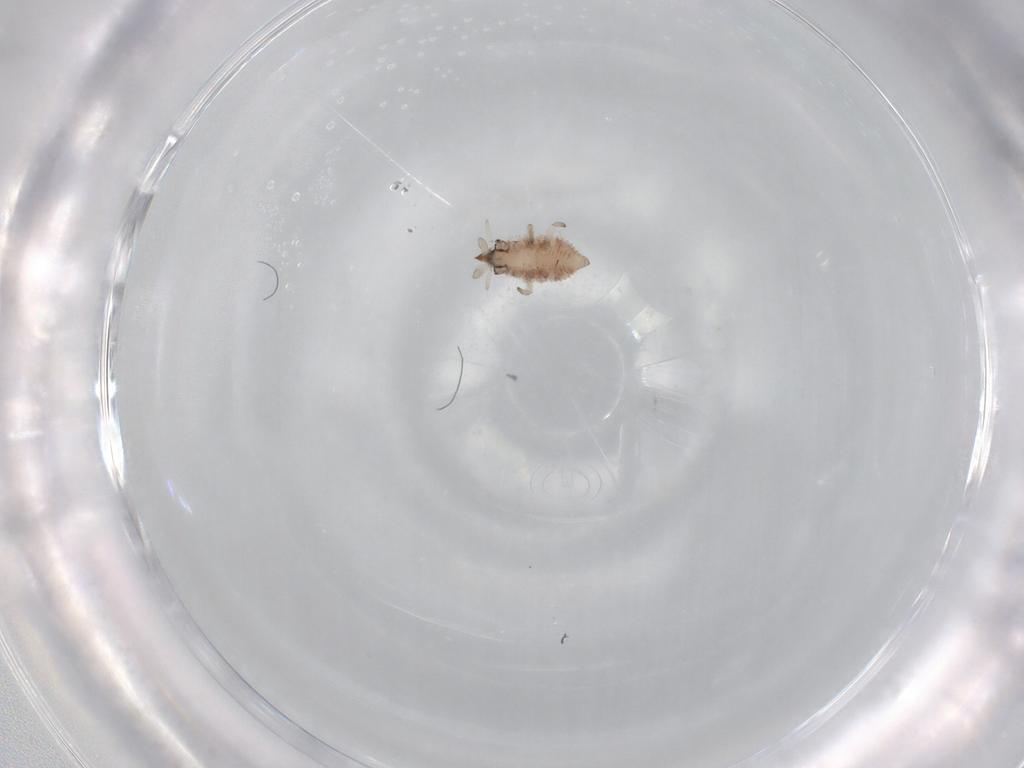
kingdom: Animalia
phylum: Arthropoda
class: Insecta
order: Neuroptera
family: Coniopterygidae
